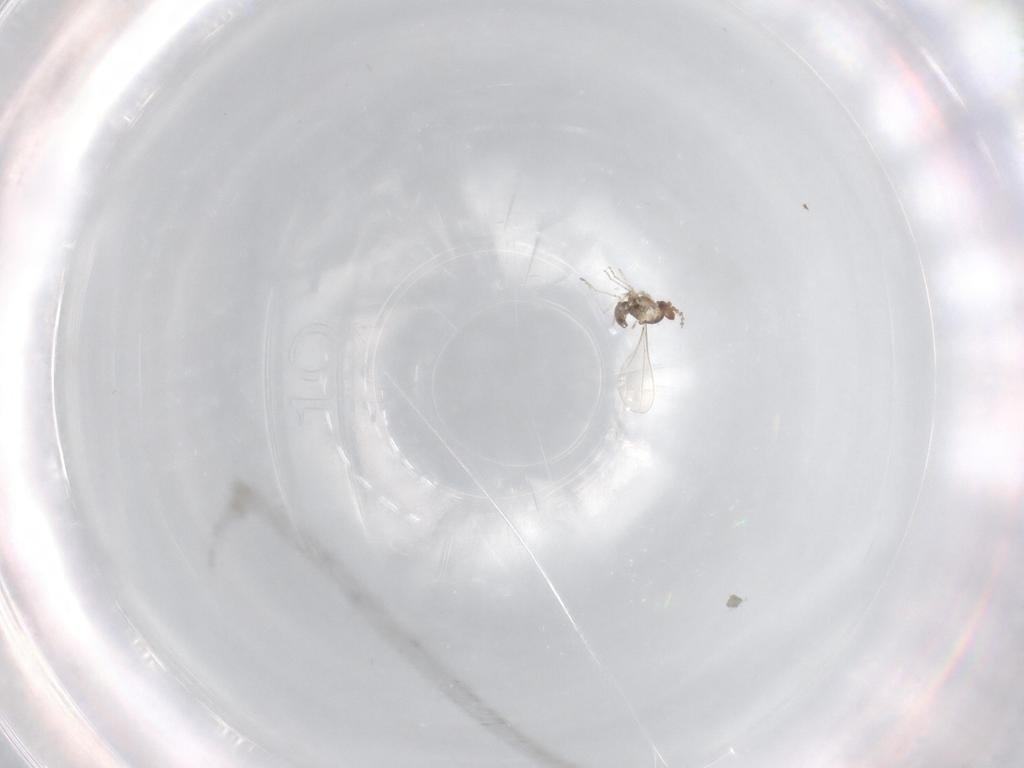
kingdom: Animalia
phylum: Arthropoda
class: Insecta
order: Diptera
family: Cecidomyiidae
